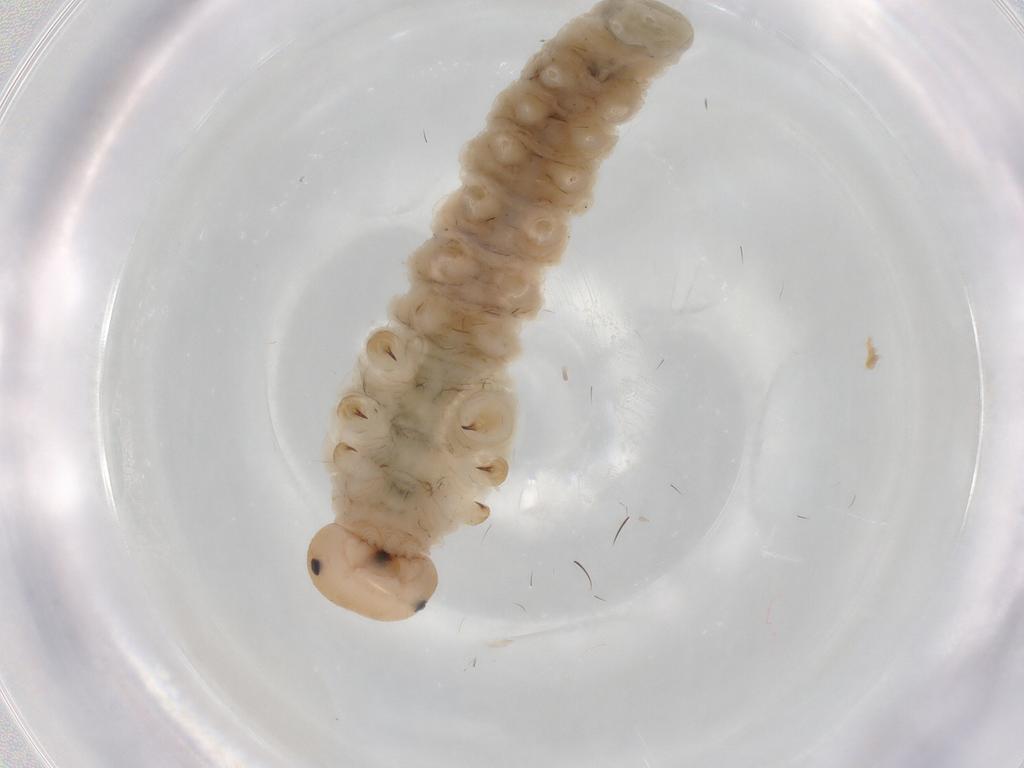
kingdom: Animalia
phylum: Arthropoda
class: Insecta
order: Hymenoptera
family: Tenthredinidae
